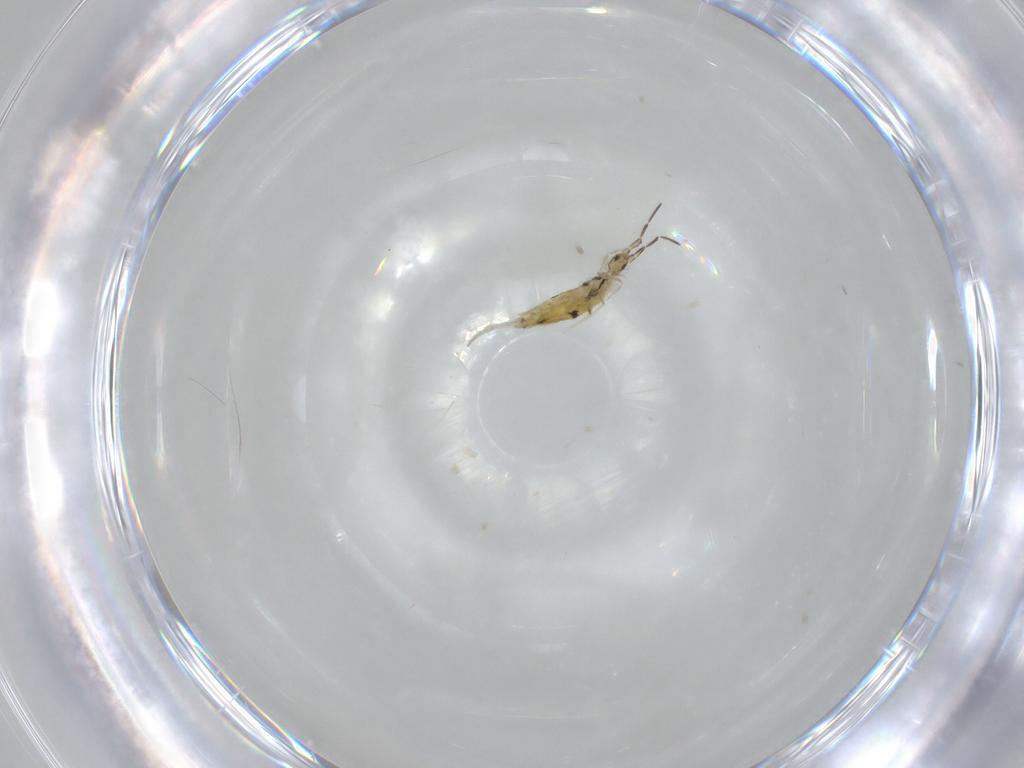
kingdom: Animalia
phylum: Arthropoda
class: Collembola
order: Entomobryomorpha
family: Entomobryidae
